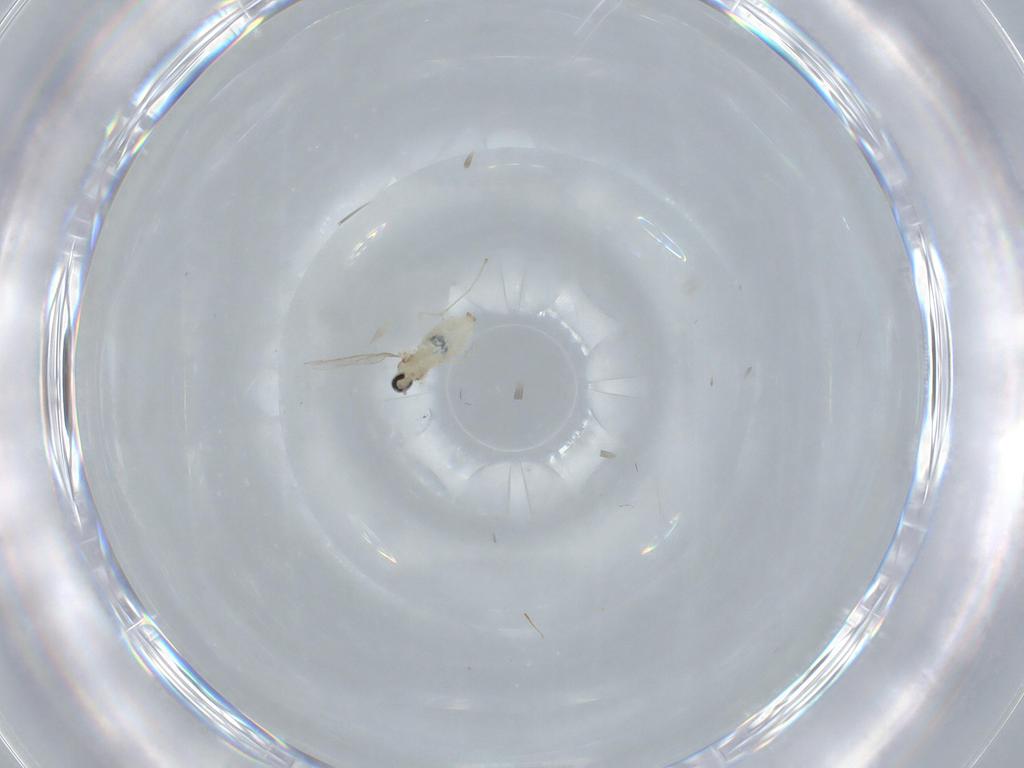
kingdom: Animalia
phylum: Arthropoda
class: Insecta
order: Diptera
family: Cecidomyiidae
